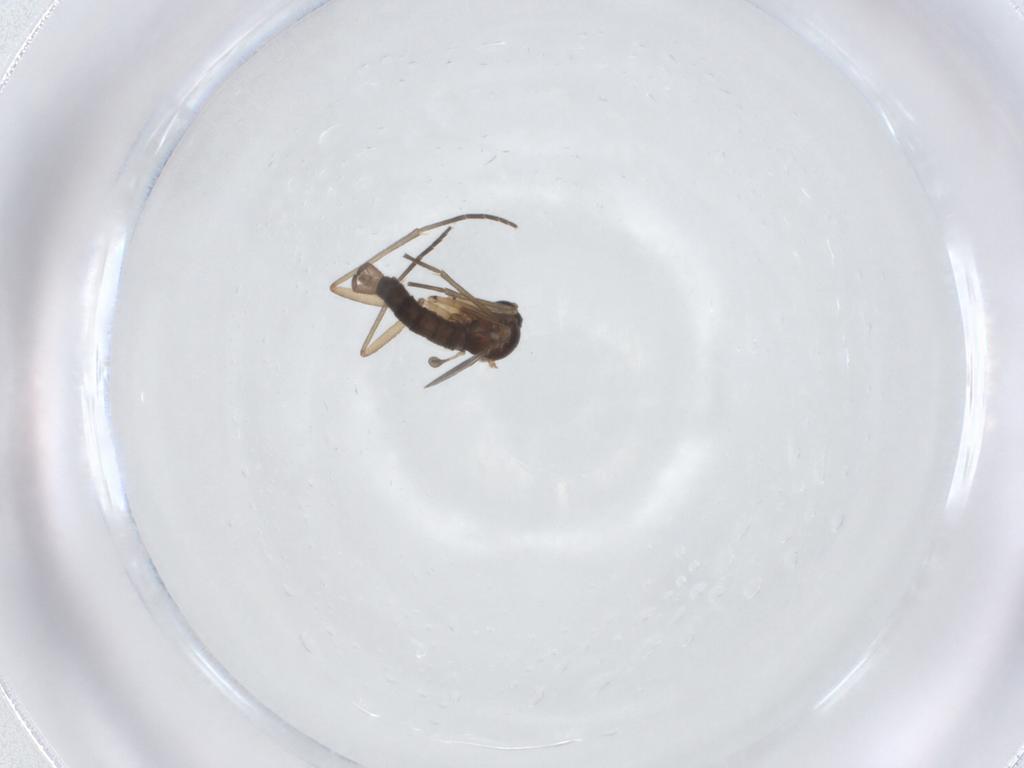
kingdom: Animalia
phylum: Arthropoda
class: Insecta
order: Diptera
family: Sciaridae
